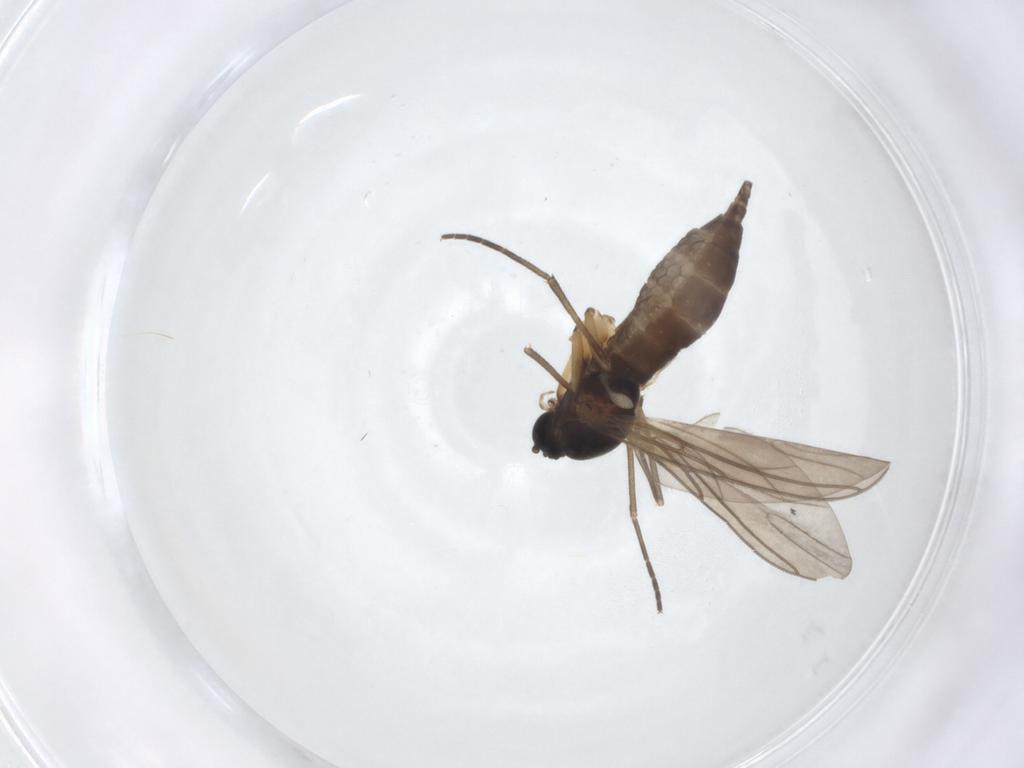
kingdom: Animalia
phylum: Arthropoda
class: Insecta
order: Diptera
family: Sciaridae
